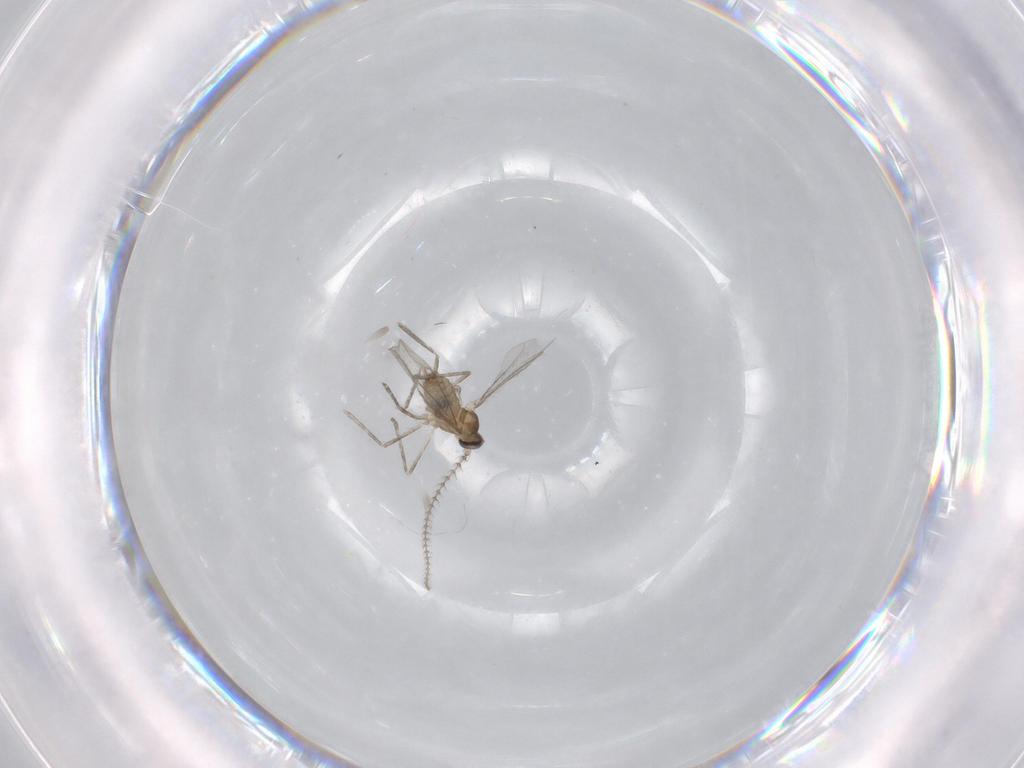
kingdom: Animalia
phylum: Arthropoda
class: Insecta
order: Diptera
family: Cecidomyiidae
